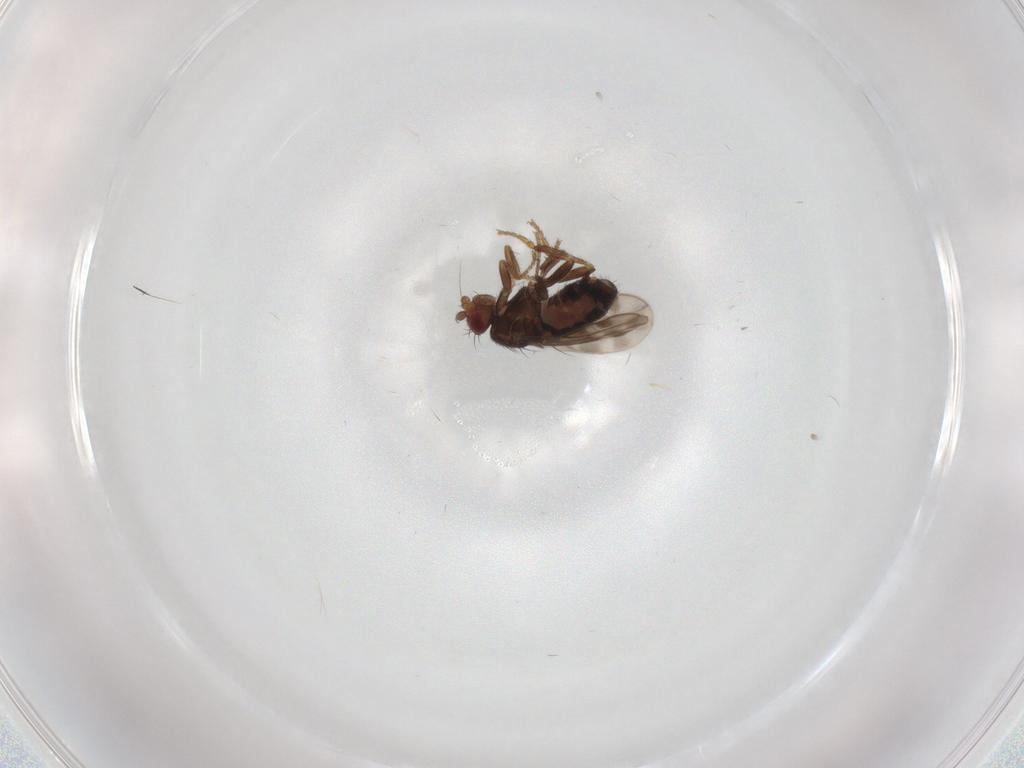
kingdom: Animalia
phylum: Arthropoda
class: Insecta
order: Diptera
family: Sphaeroceridae
